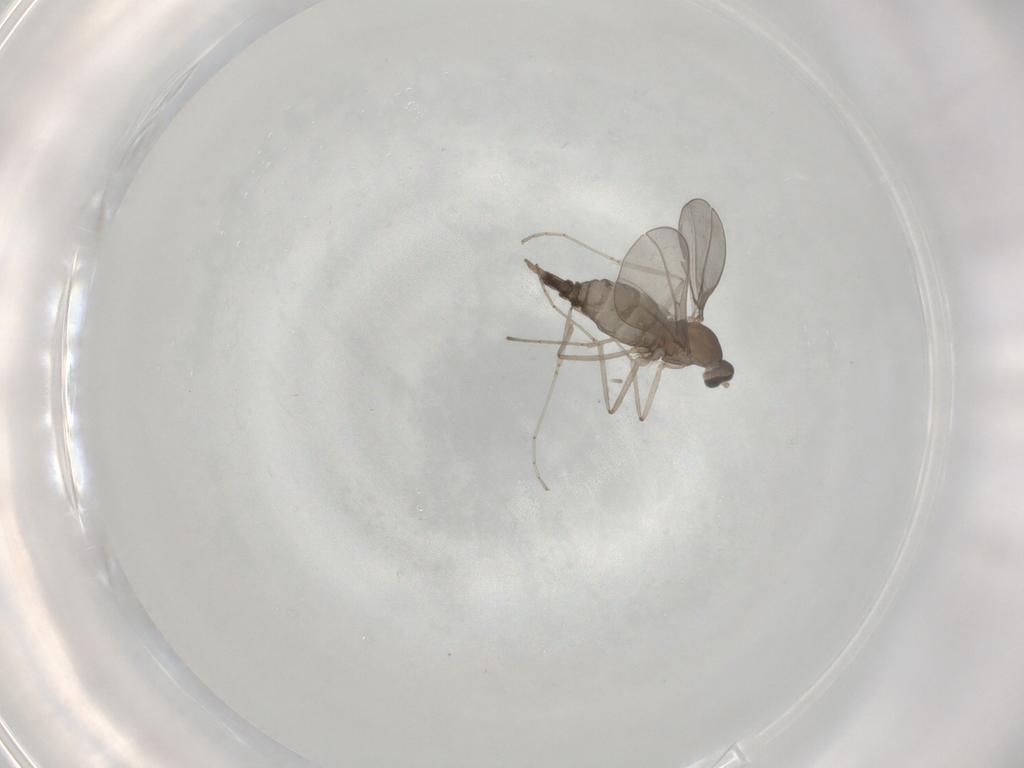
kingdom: Animalia
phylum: Arthropoda
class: Insecta
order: Diptera
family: Cecidomyiidae
